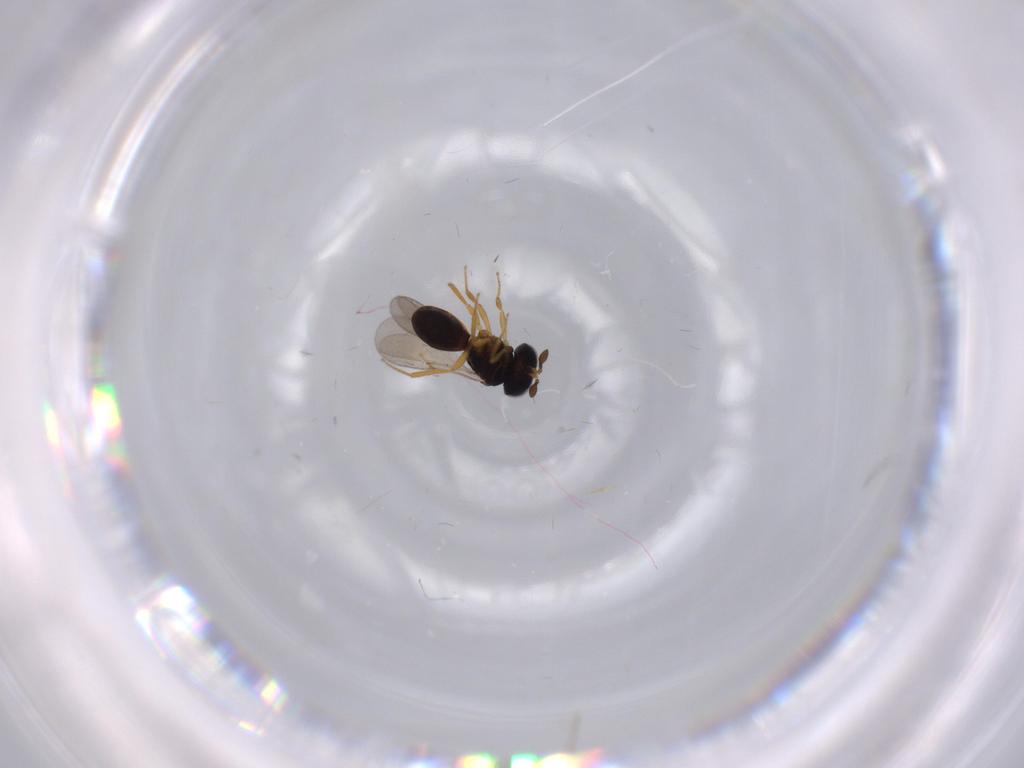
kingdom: Animalia
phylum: Arthropoda
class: Insecta
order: Hymenoptera
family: Scelionidae
